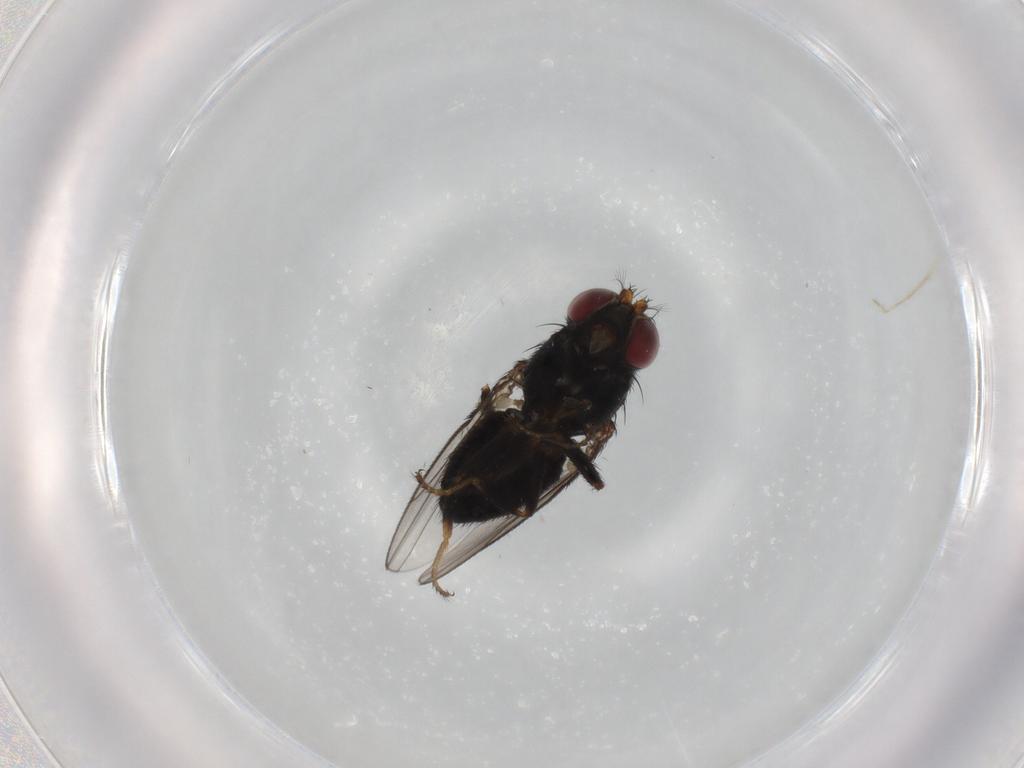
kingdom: Animalia
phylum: Arthropoda
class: Insecta
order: Diptera
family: Ephydridae
